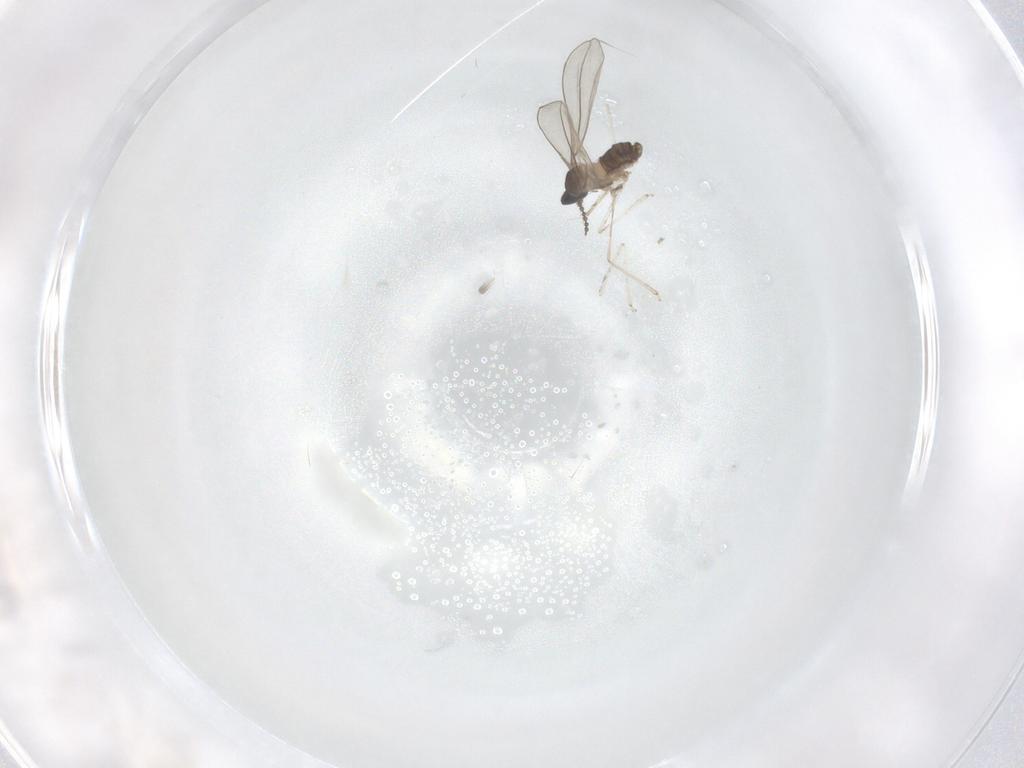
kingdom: Animalia
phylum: Arthropoda
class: Insecta
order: Diptera
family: Cecidomyiidae
